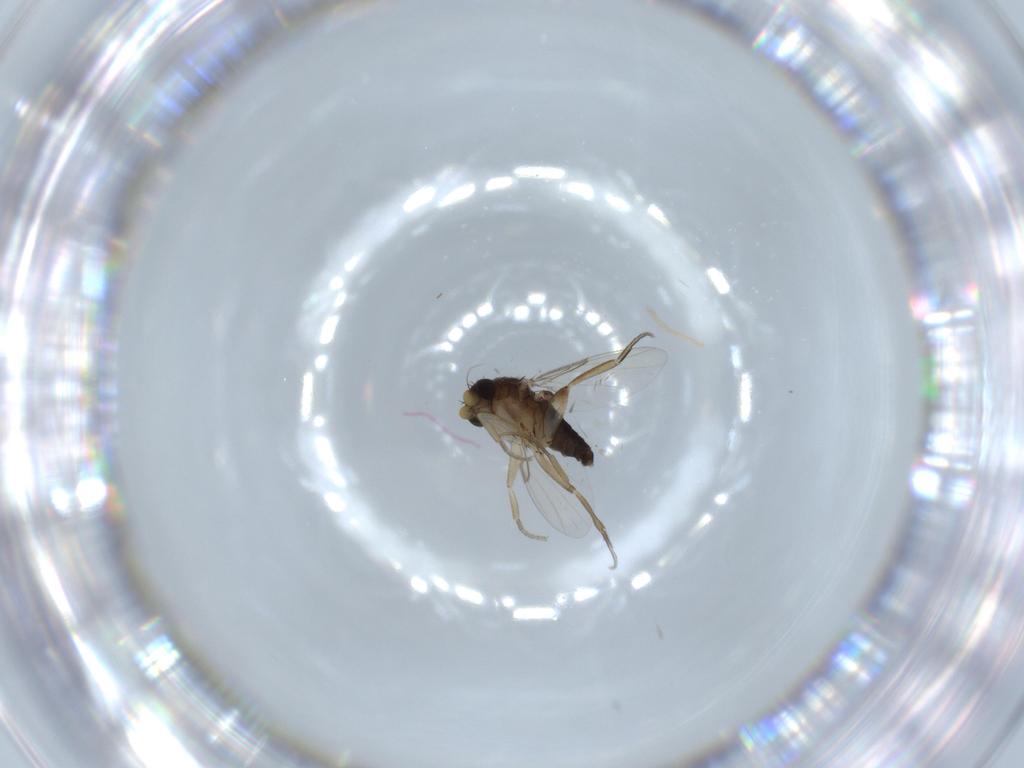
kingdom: Animalia
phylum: Arthropoda
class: Insecta
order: Diptera
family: Phoridae
